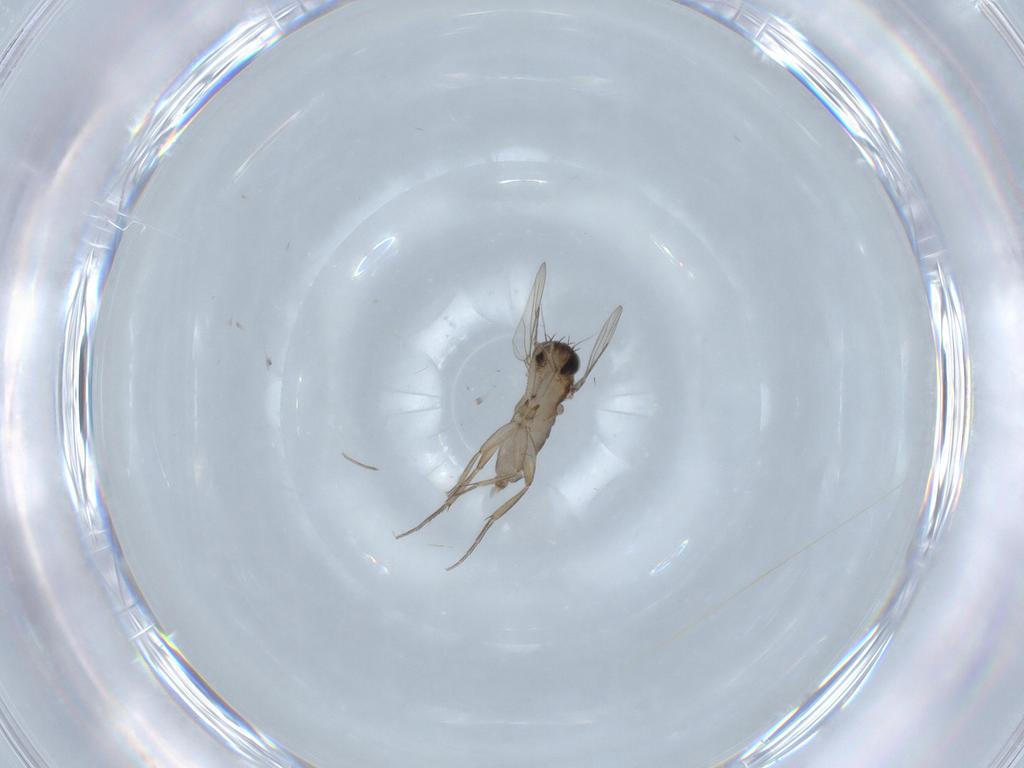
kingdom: Animalia
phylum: Arthropoda
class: Insecta
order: Diptera
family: Phoridae
